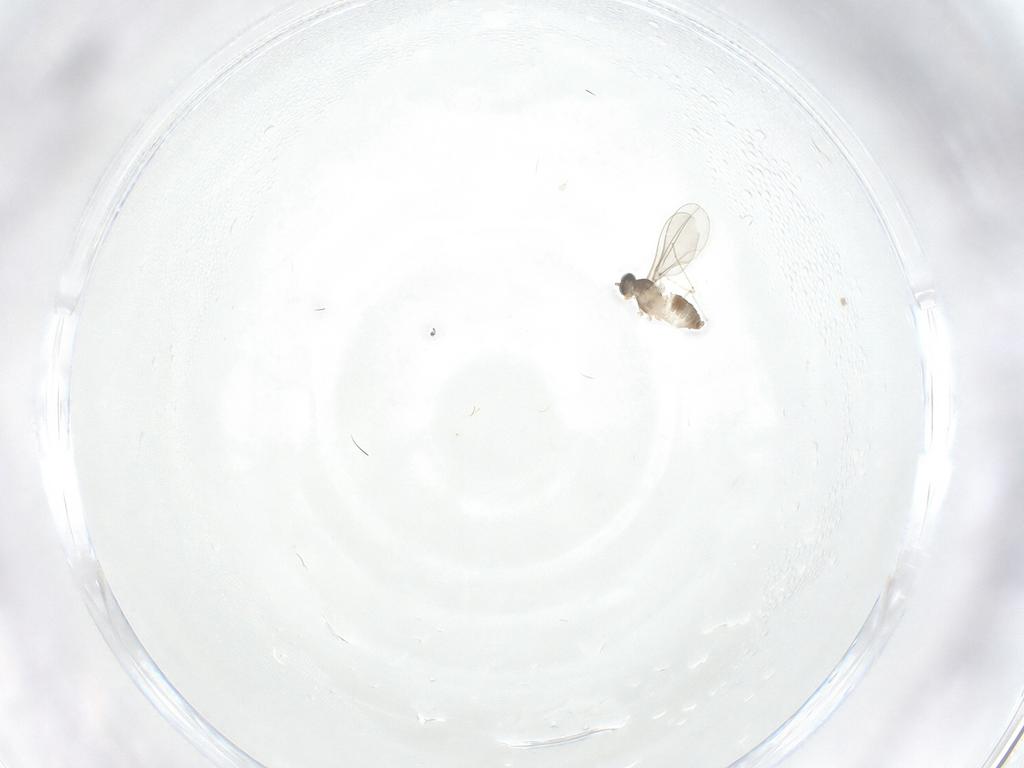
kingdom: Animalia
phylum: Arthropoda
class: Insecta
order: Diptera
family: Cecidomyiidae
